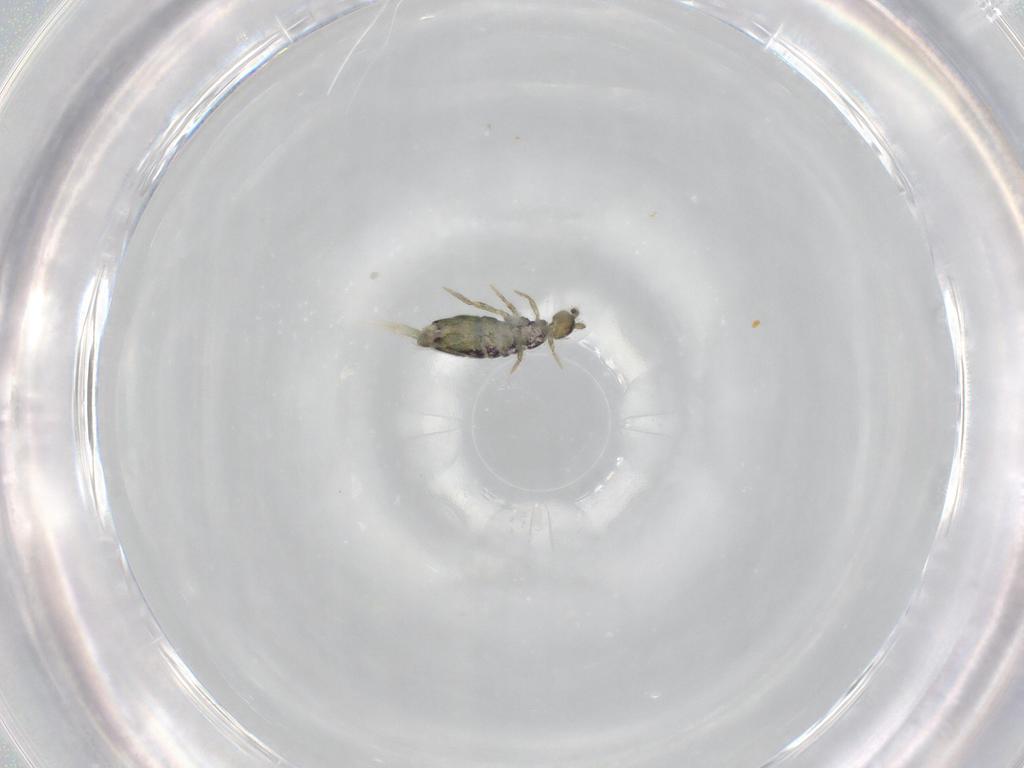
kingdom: Animalia
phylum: Arthropoda
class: Collembola
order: Entomobryomorpha
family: Entomobryidae
